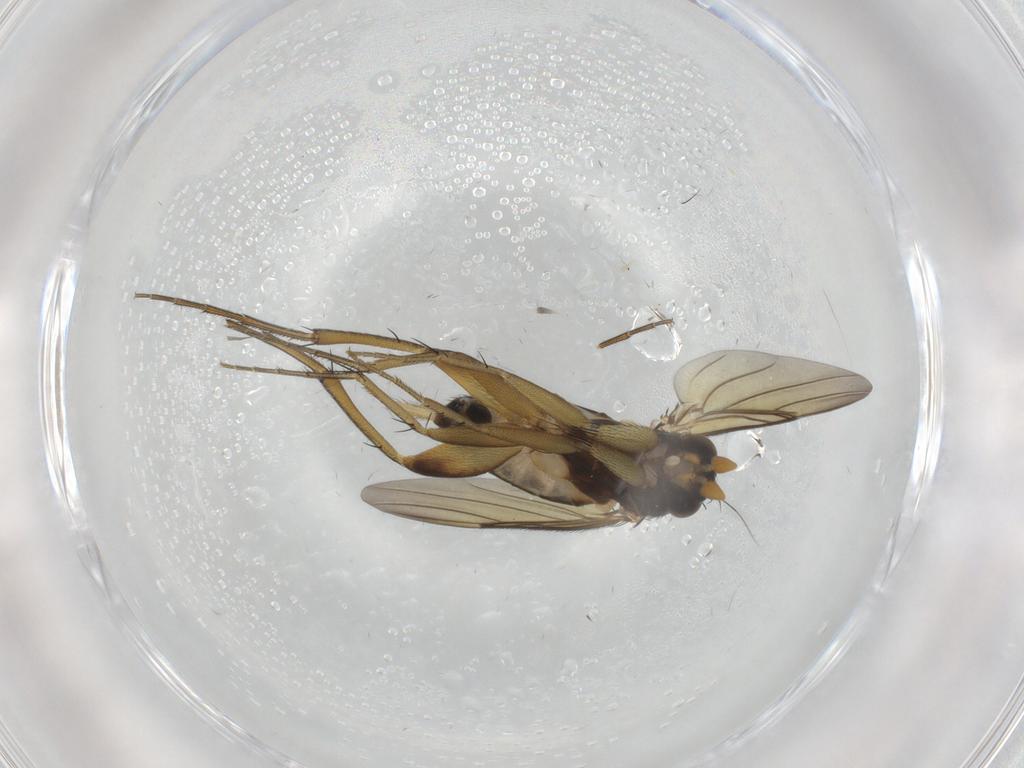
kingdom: Animalia
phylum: Arthropoda
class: Insecta
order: Diptera
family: Phoridae
